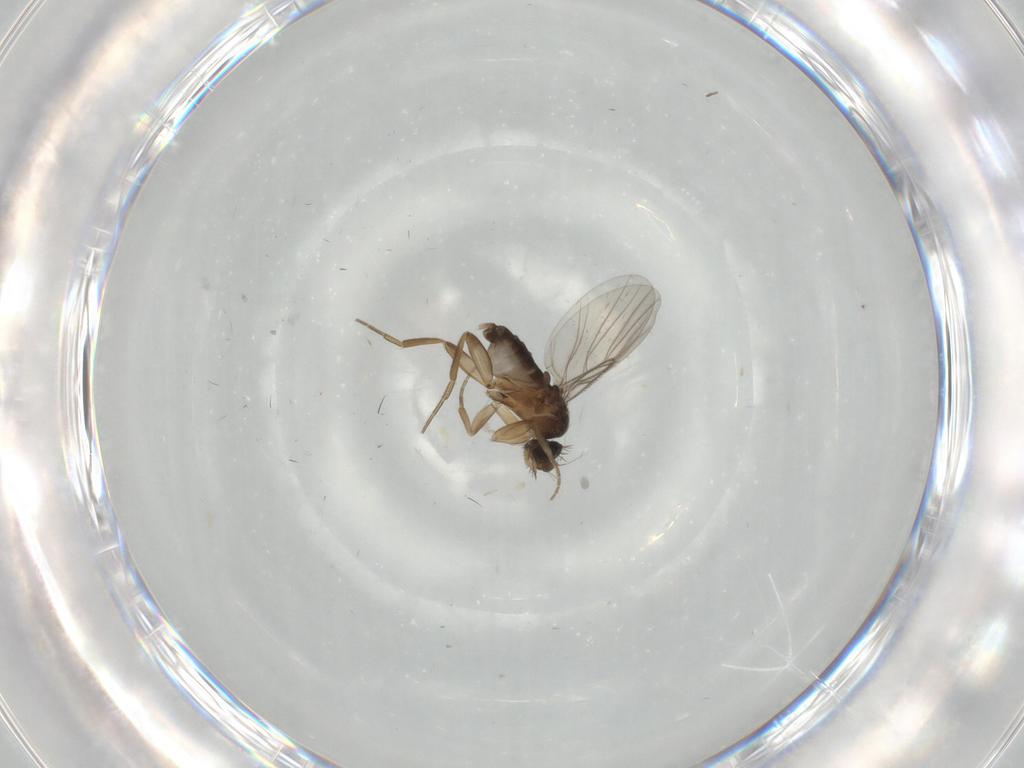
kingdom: Animalia
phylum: Arthropoda
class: Insecta
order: Diptera
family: Phoridae
